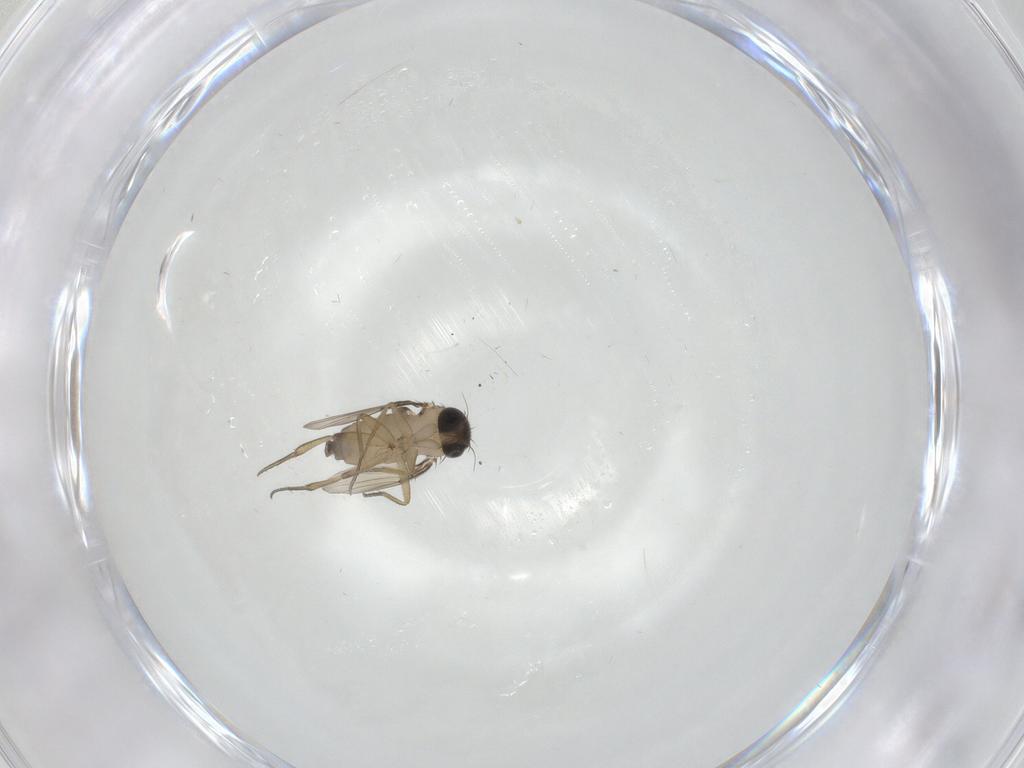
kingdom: Animalia
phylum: Arthropoda
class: Insecta
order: Diptera
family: Phoridae
